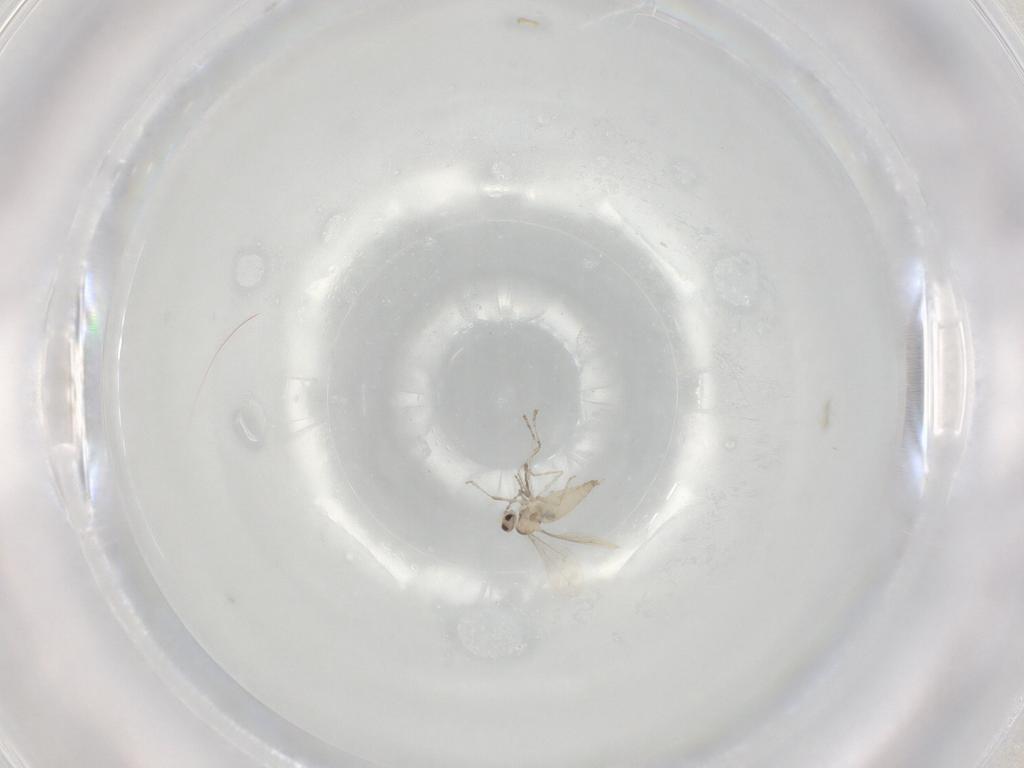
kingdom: Animalia
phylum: Arthropoda
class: Insecta
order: Diptera
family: Cecidomyiidae
